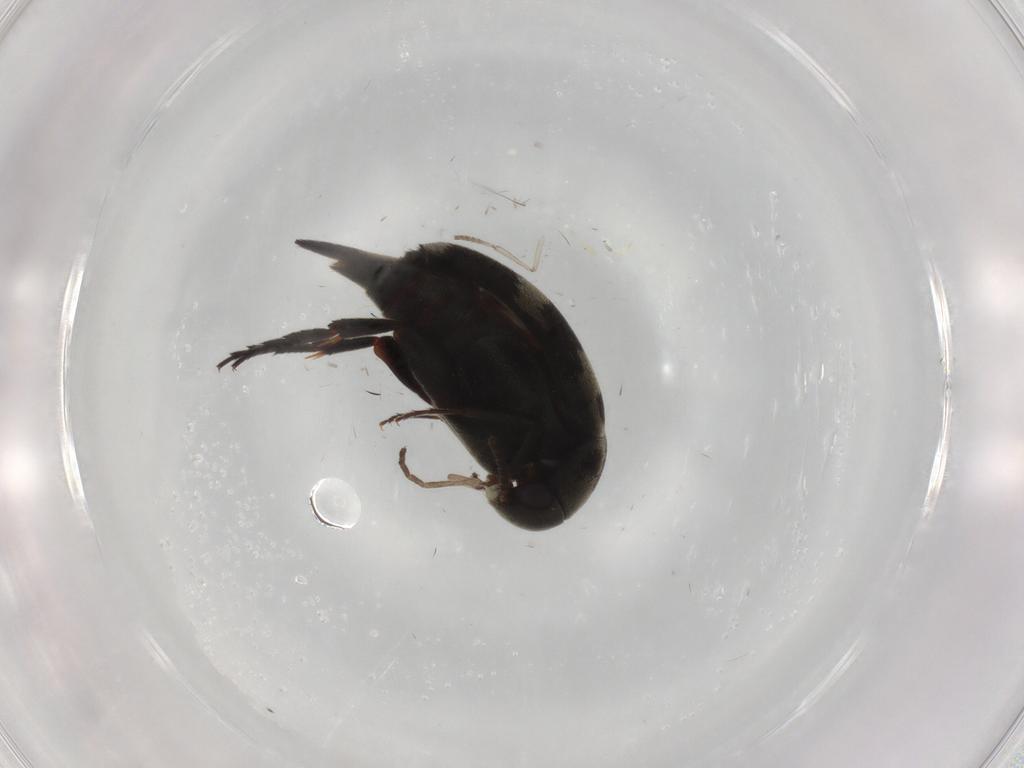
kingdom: Animalia
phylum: Arthropoda
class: Insecta
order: Coleoptera
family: Mordellidae
